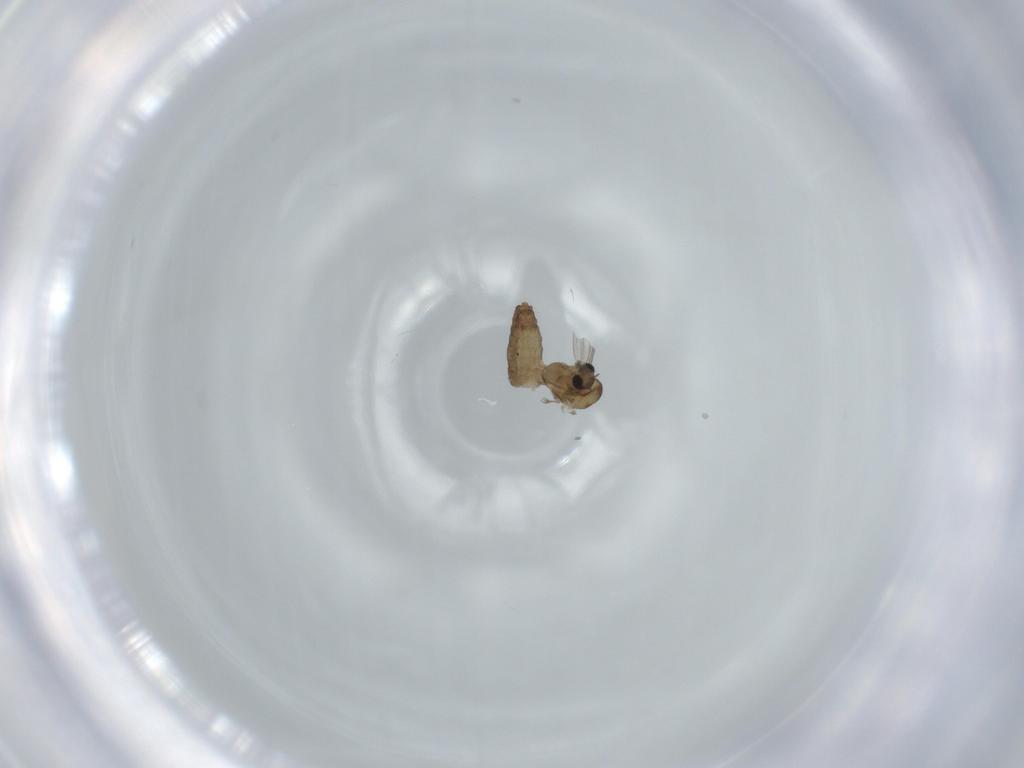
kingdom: Animalia
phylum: Arthropoda
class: Insecta
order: Diptera
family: Chironomidae
